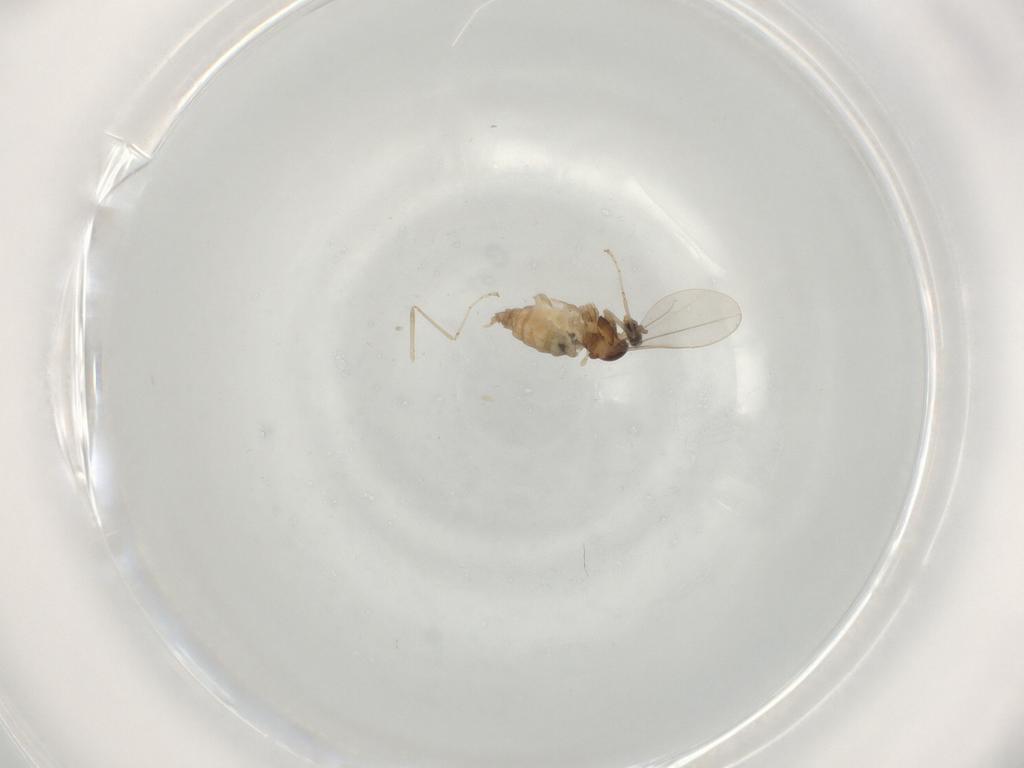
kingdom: Animalia
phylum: Arthropoda
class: Insecta
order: Diptera
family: Cecidomyiidae
